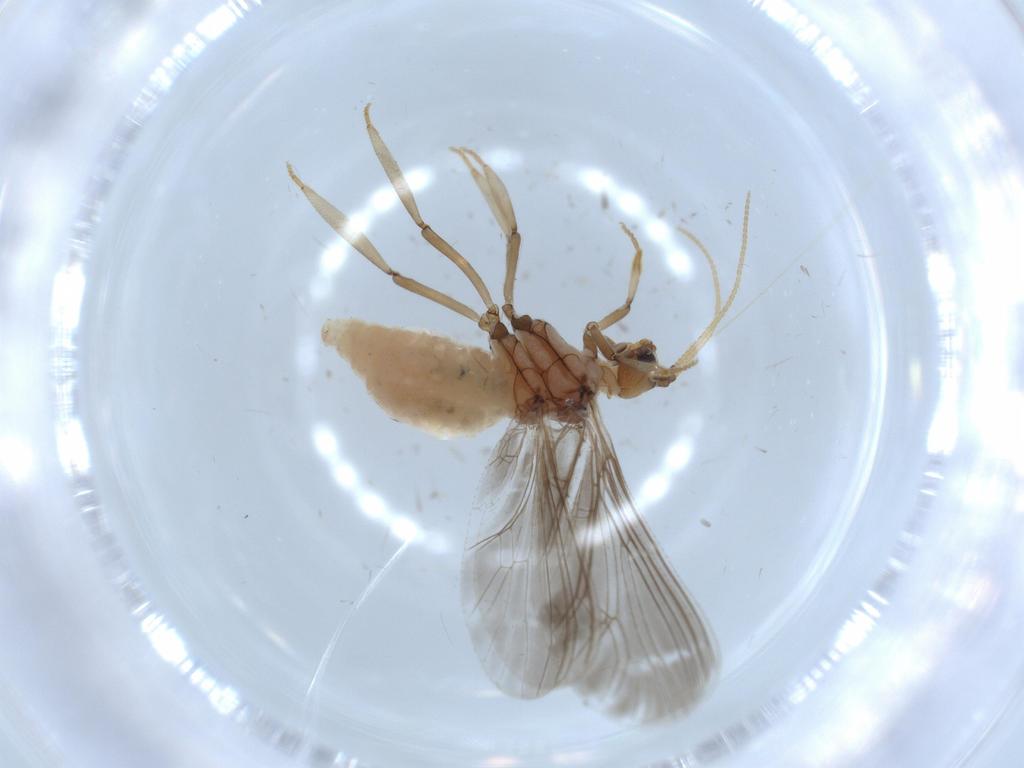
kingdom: Animalia
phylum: Arthropoda
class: Insecta
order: Neuroptera
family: Coniopterygidae
